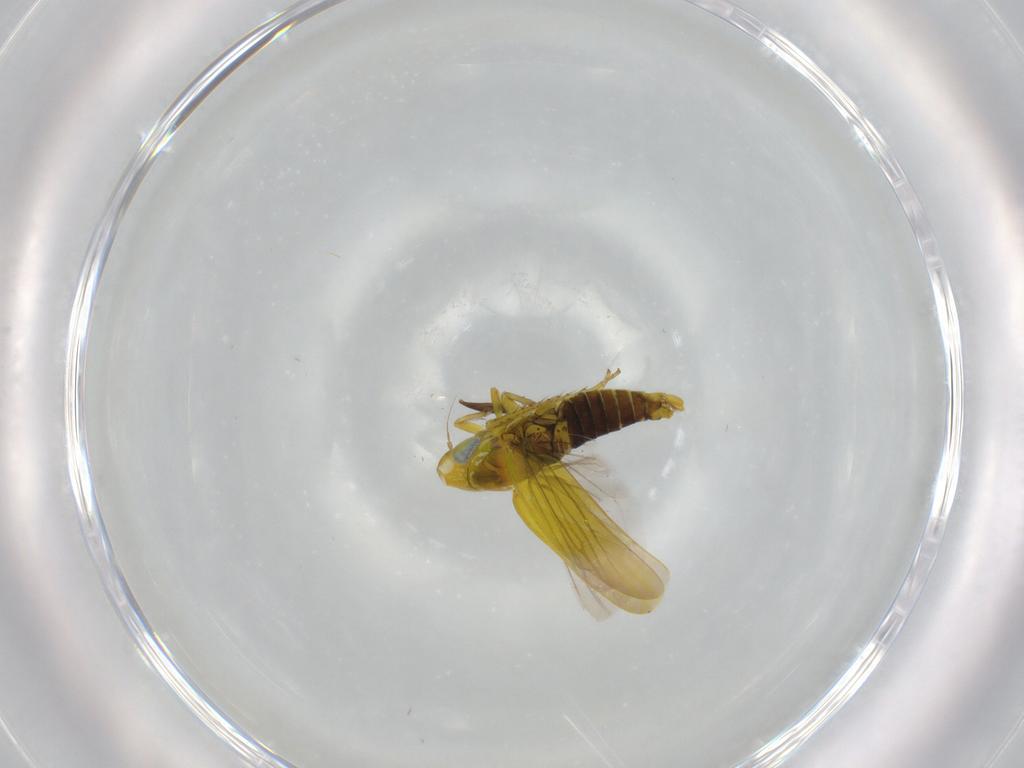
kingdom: Animalia
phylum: Arthropoda
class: Insecta
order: Hemiptera
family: Cicadellidae
